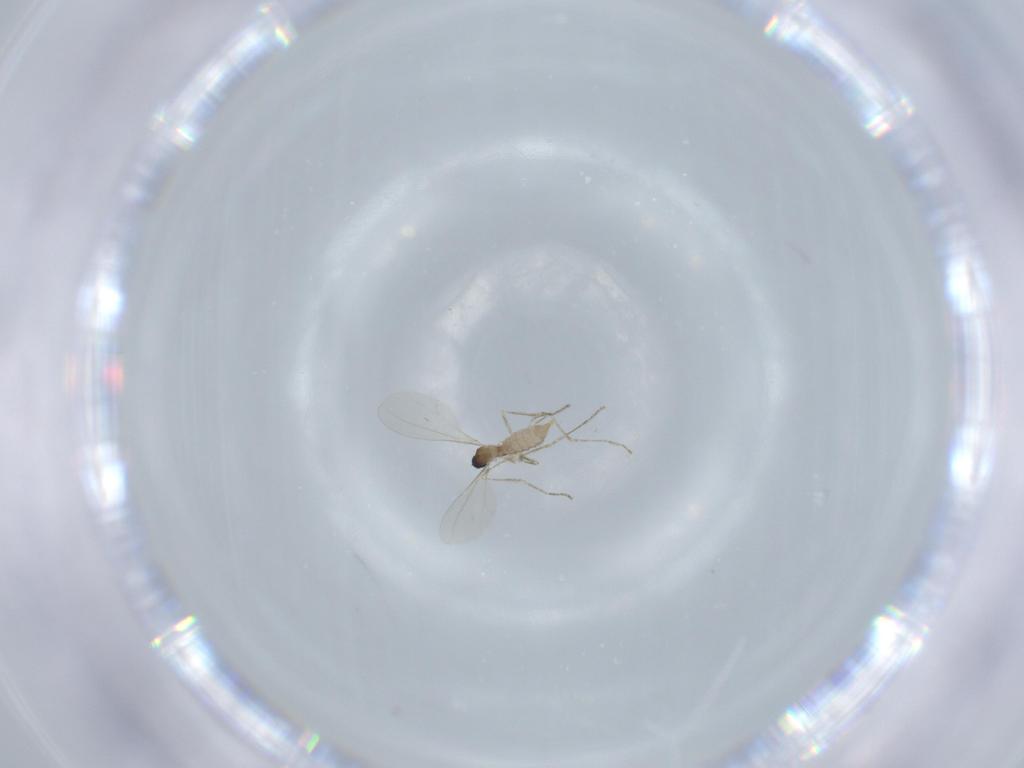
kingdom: Animalia
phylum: Arthropoda
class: Insecta
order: Diptera
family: Cecidomyiidae
